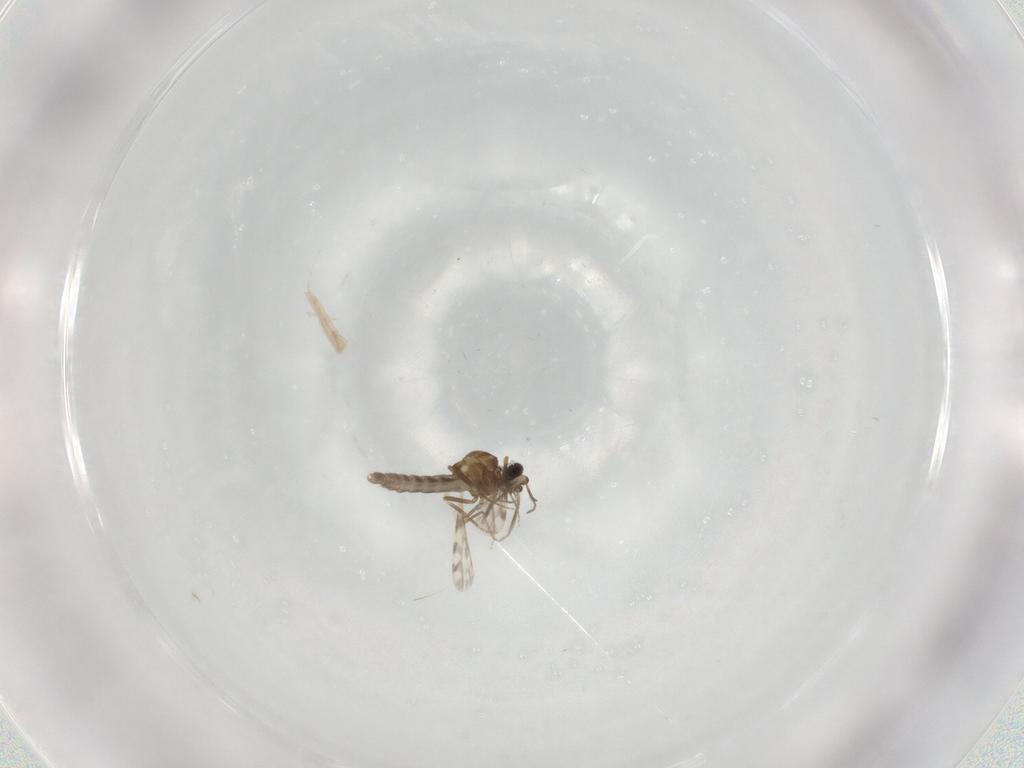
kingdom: Animalia
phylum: Arthropoda
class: Insecta
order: Diptera
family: Ceratopogonidae
